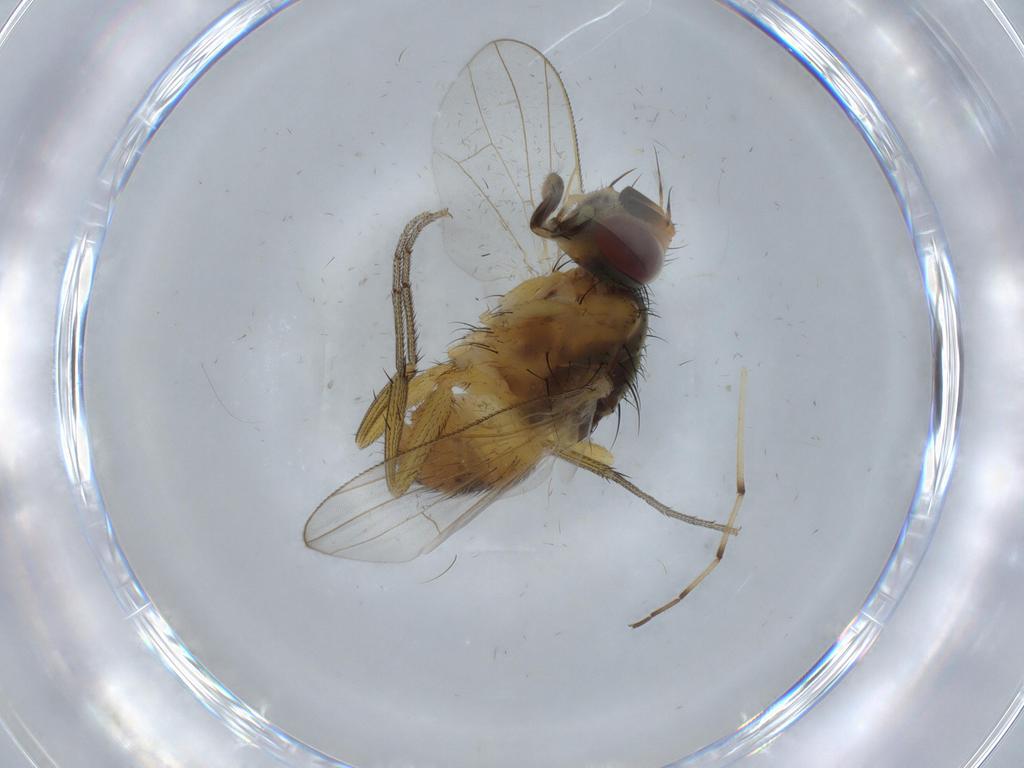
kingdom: Animalia
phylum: Arthropoda
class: Insecta
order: Diptera
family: Muscidae
